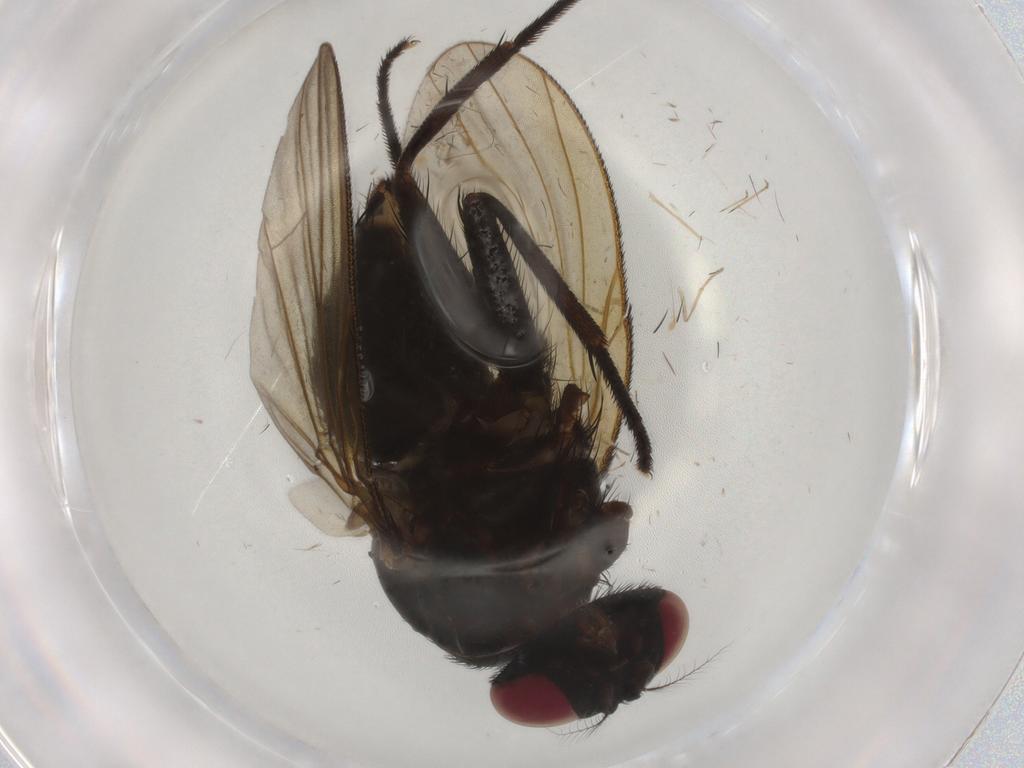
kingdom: Animalia
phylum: Arthropoda
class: Insecta
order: Diptera
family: Muscidae
